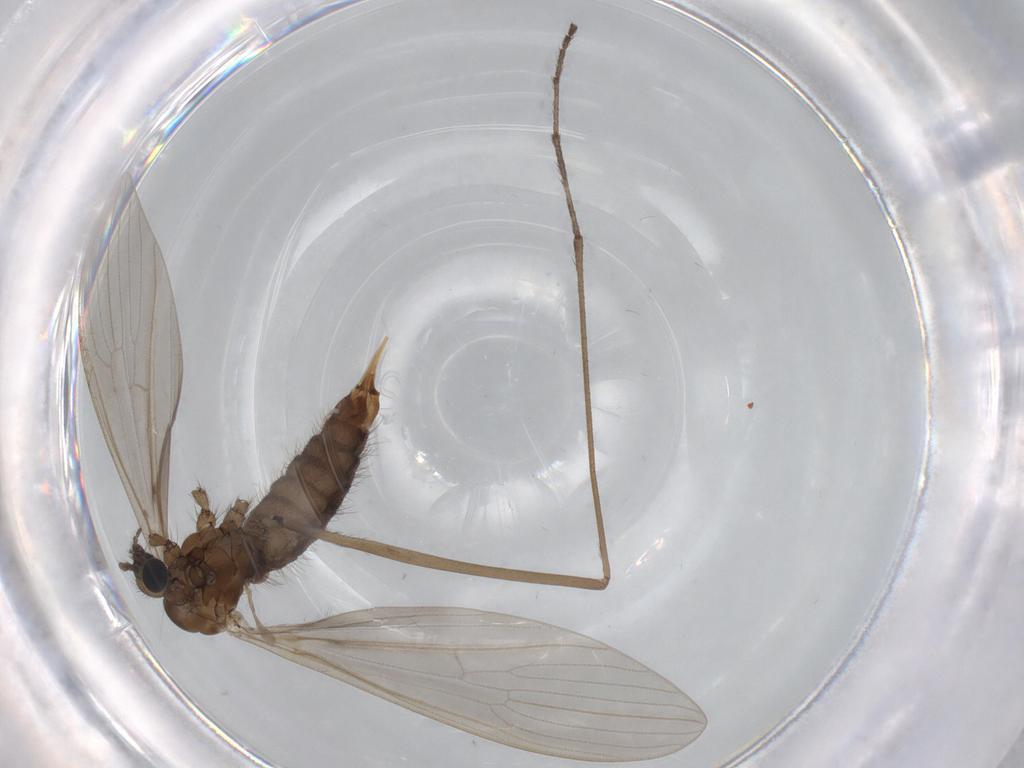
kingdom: Animalia
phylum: Arthropoda
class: Insecta
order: Diptera
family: Limoniidae
